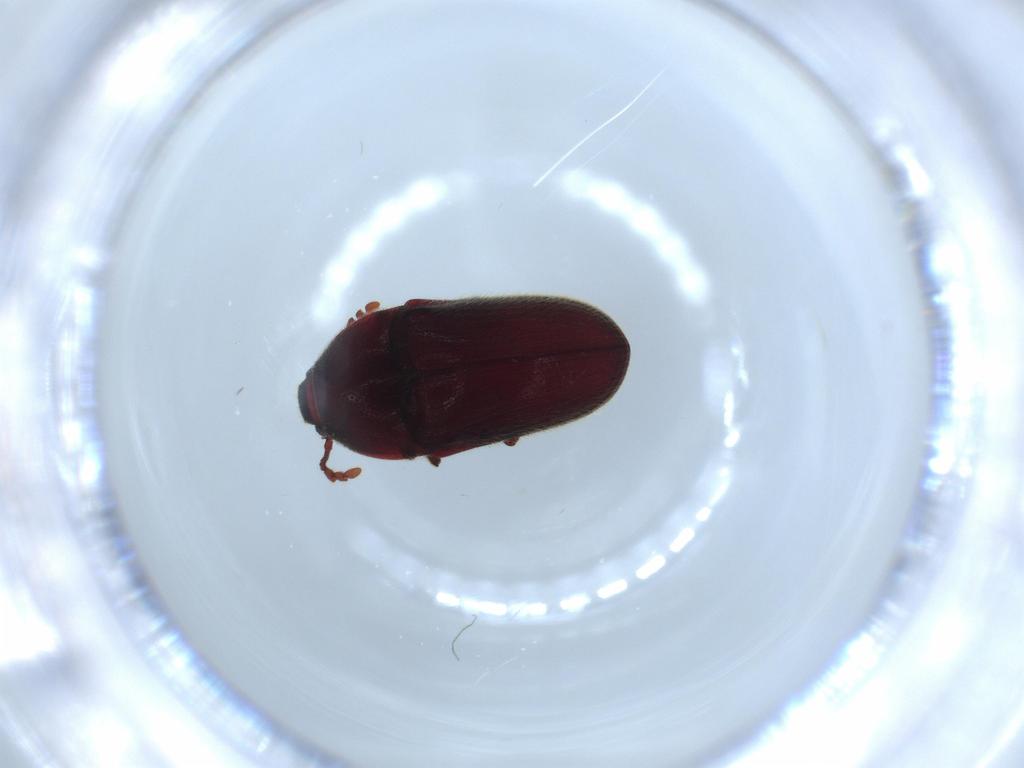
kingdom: Animalia
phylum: Arthropoda
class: Insecta
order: Coleoptera
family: Throscidae
